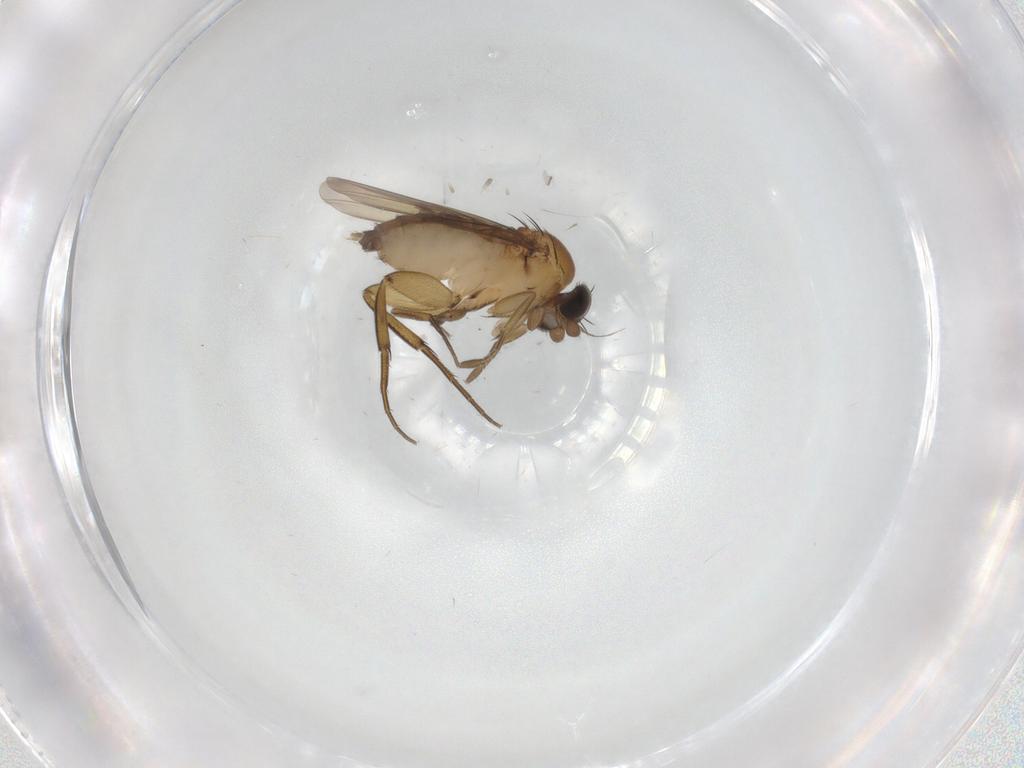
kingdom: Animalia
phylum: Arthropoda
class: Insecta
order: Diptera
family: Phoridae
